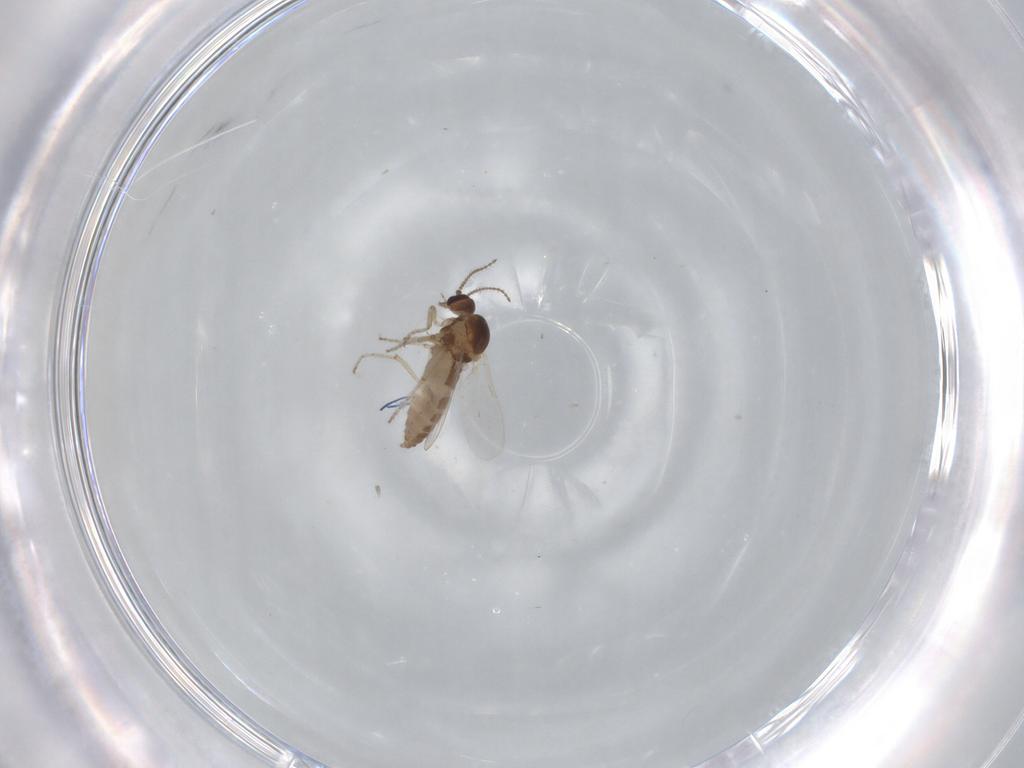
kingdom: Animalia
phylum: Arthropoda
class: Insecta
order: Diptera
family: Ceratopogonidae
